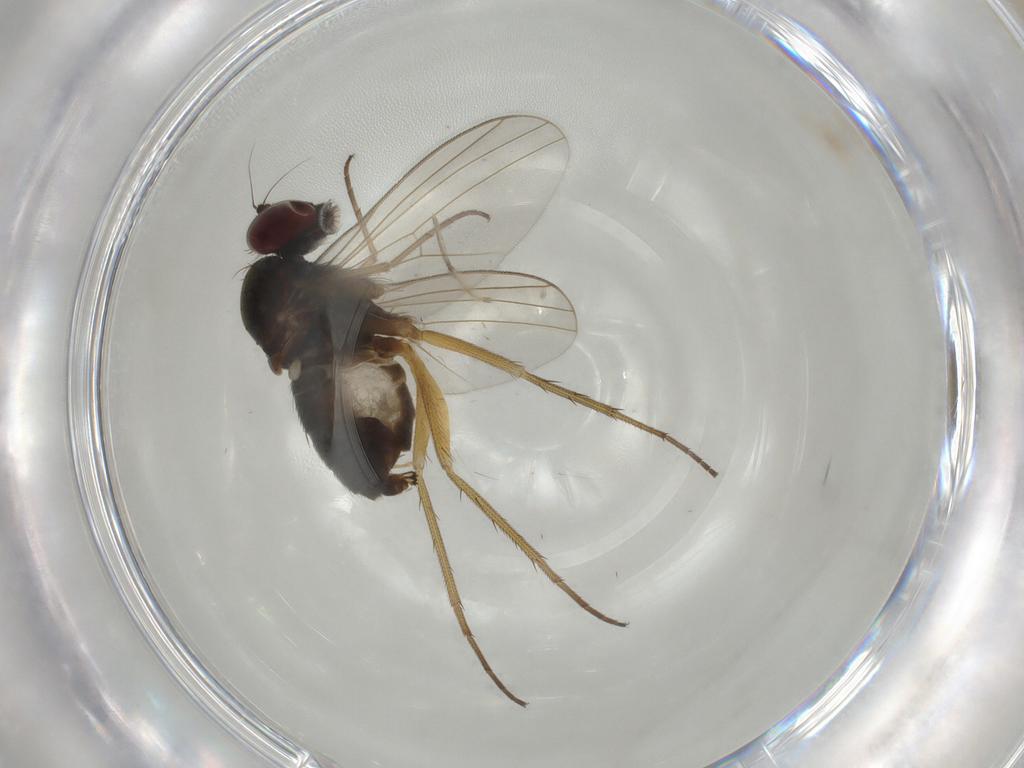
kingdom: Animalia
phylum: Arthropoda
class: Insecta
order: Diptera
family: Dolichopodidae
